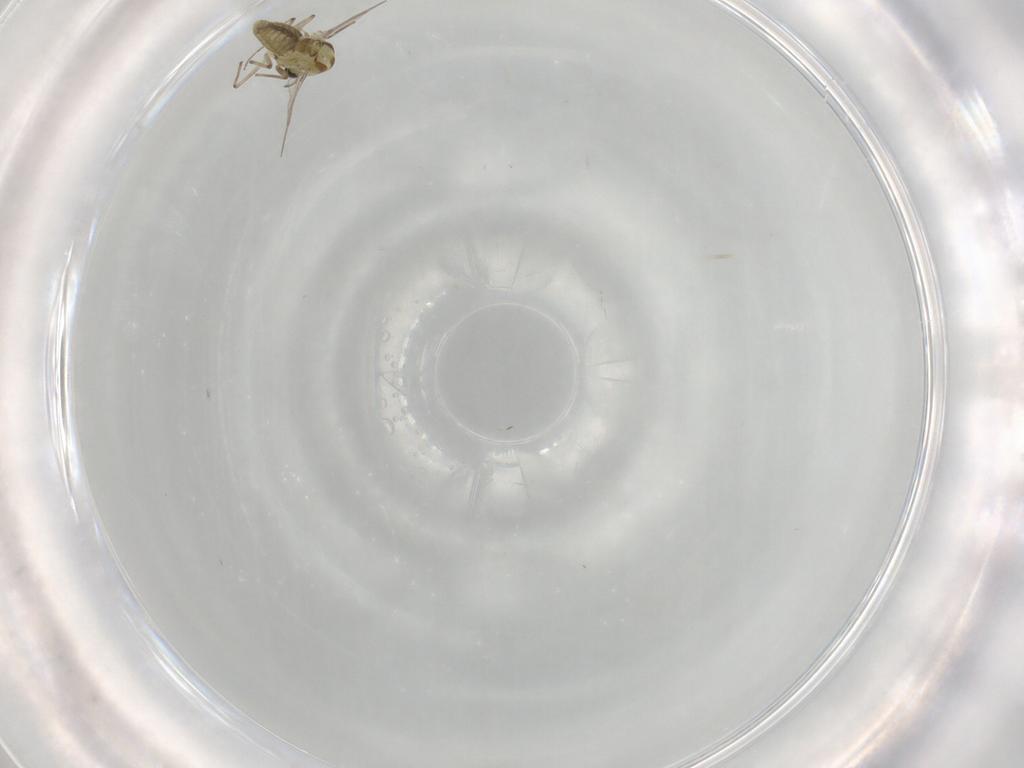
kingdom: Animalia
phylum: Arthropoda
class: Insecta
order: Diptera
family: Chironomidae
